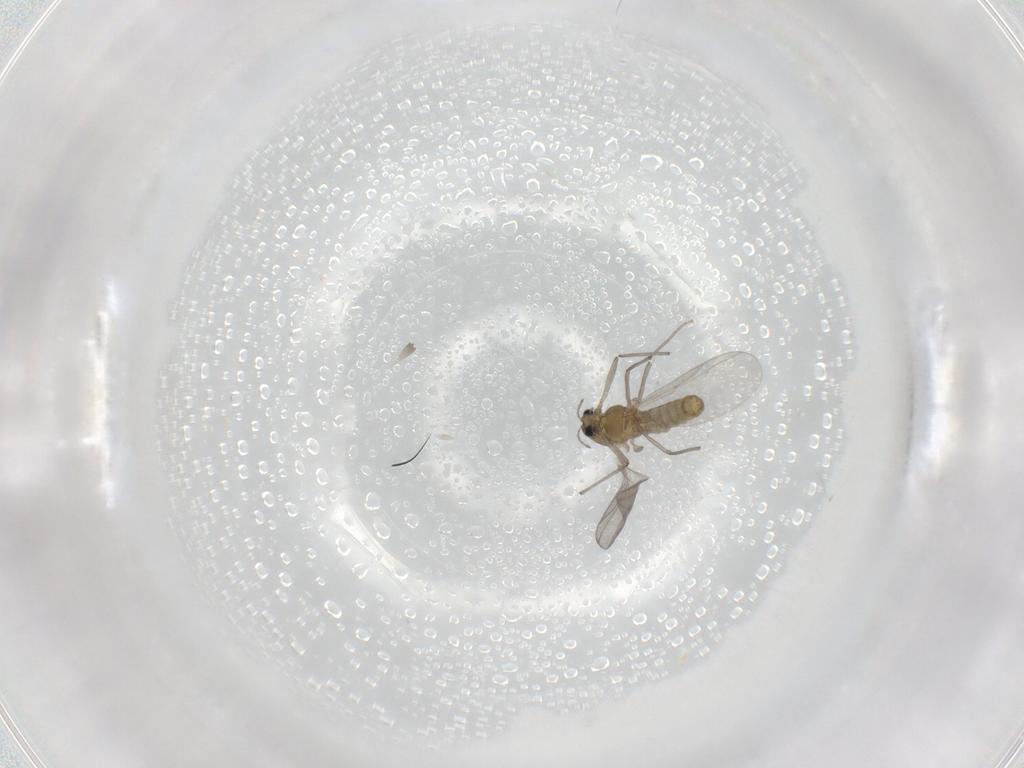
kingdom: Animalia
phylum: Arthropoda
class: Insecta
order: Diptera
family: Chironomidae
